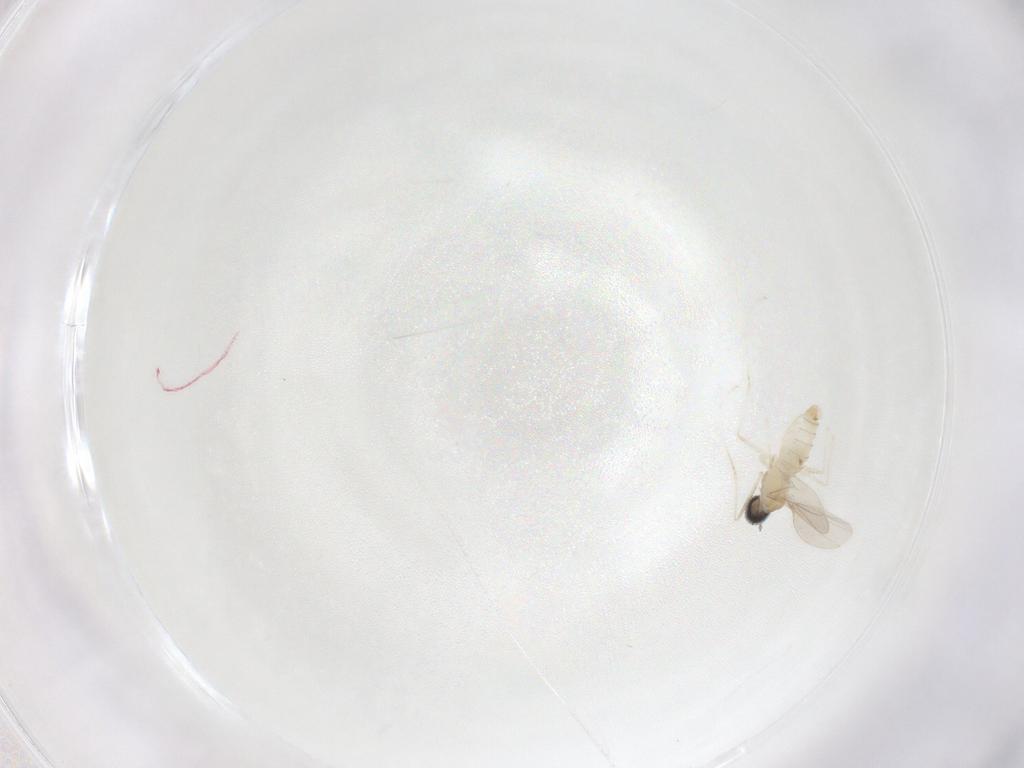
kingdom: Animalia
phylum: Arthropoda
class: Insecta
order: Diptera
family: Cecidomyiidae
